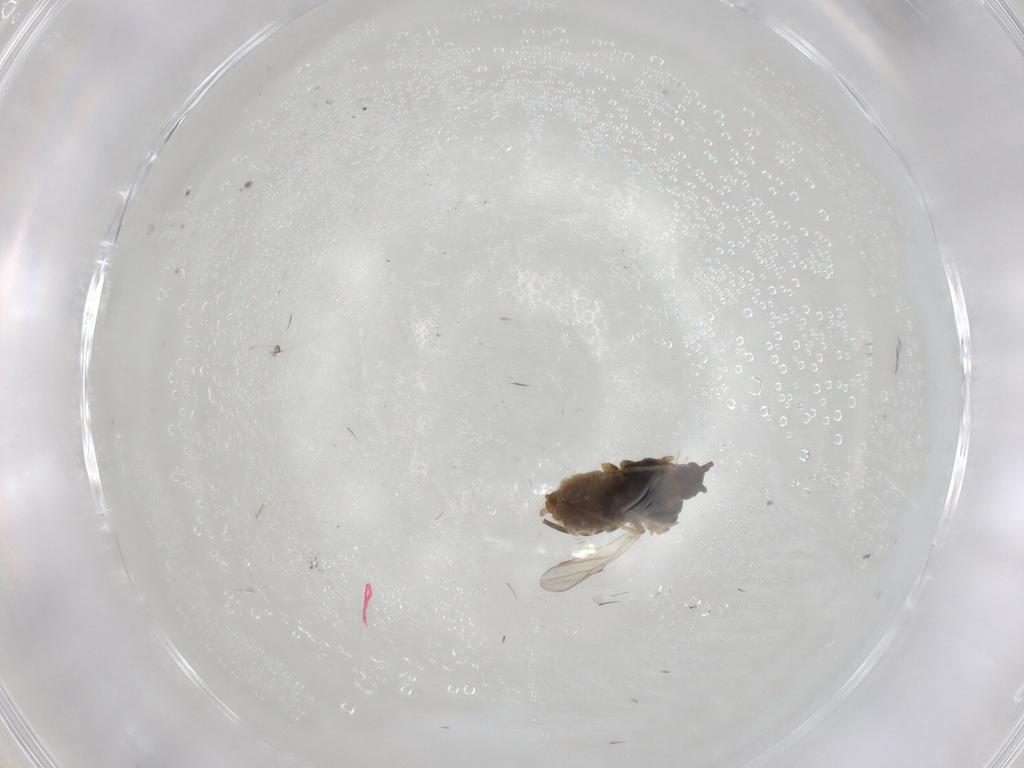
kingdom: Animalia
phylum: Arthropoda
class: Insecta
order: Hemiptera
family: Aphididae
